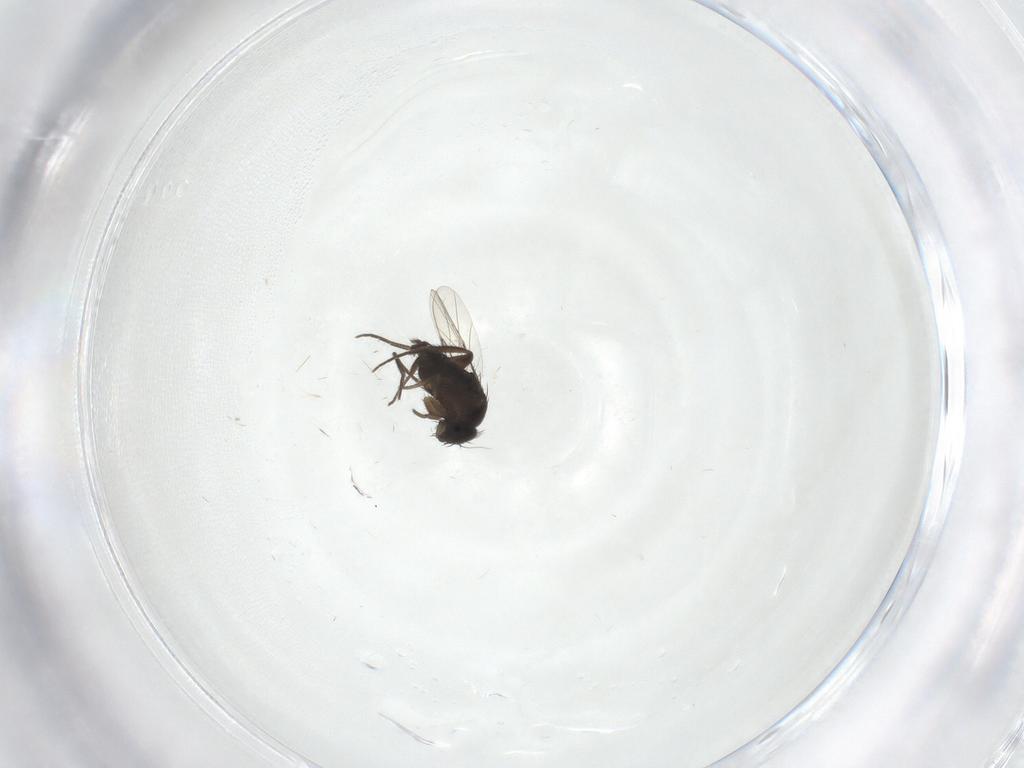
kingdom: Animalia
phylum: Arthropoda
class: Insecta
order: Diptera
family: Phoridae
